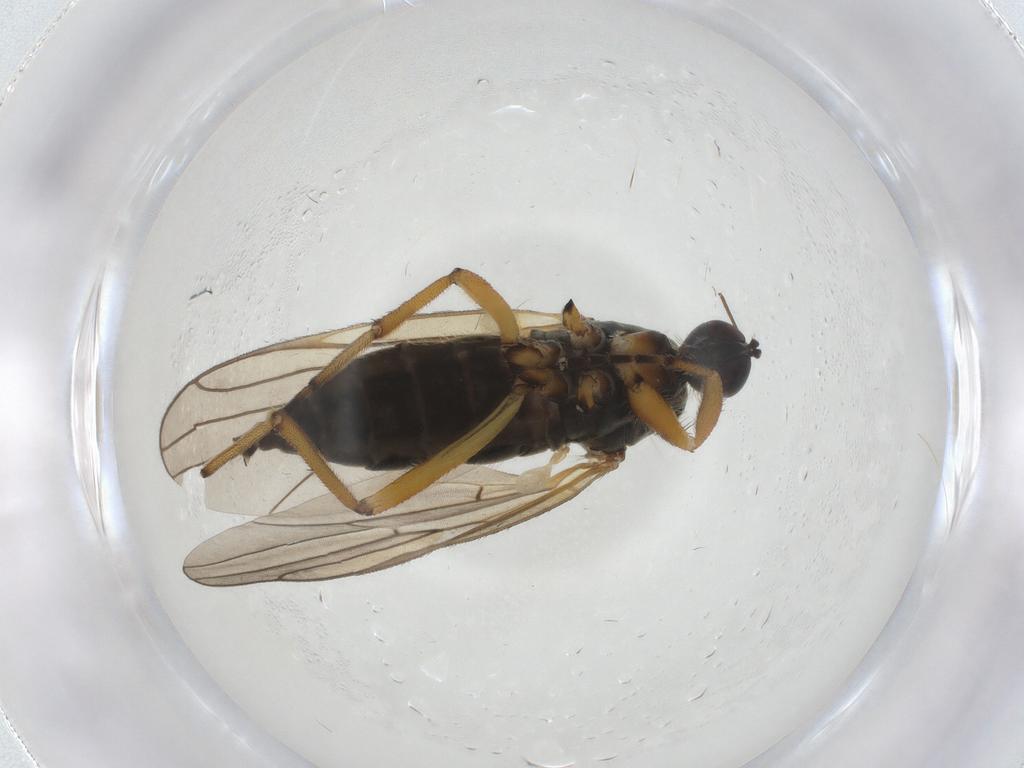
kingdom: Animalia
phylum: Arthropoda
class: Insecta
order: Diptera
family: Hybotidae
